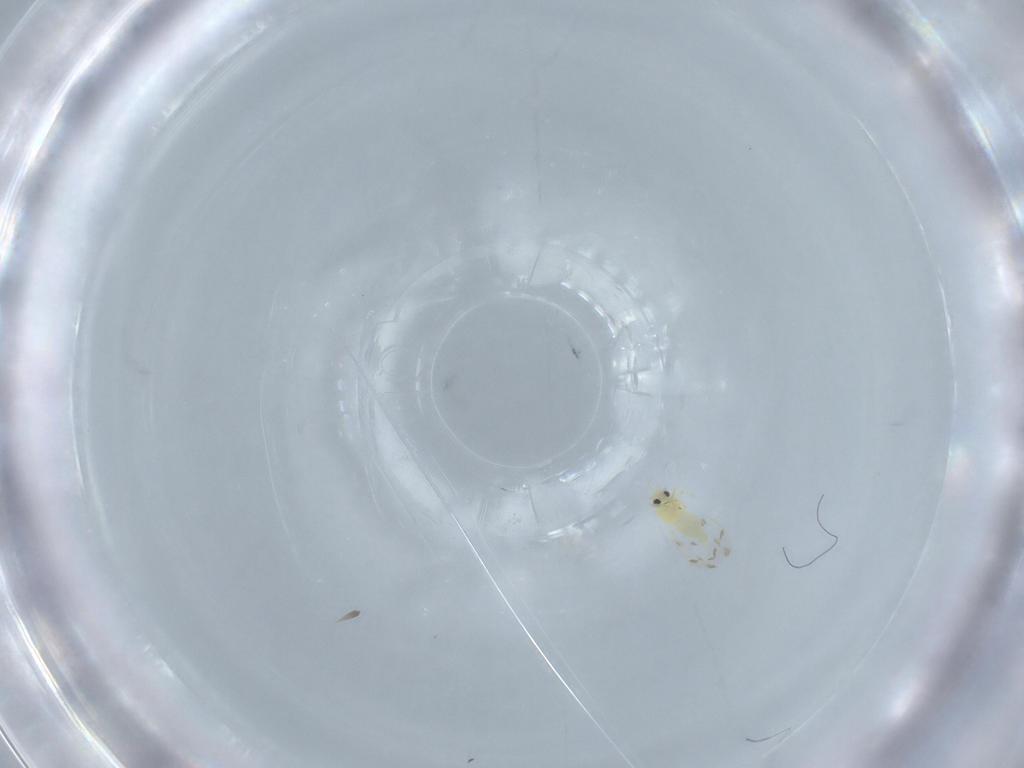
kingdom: Animalia
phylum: Arthropoda
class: Insecta
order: Hemiptera
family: Aleyrodidae
